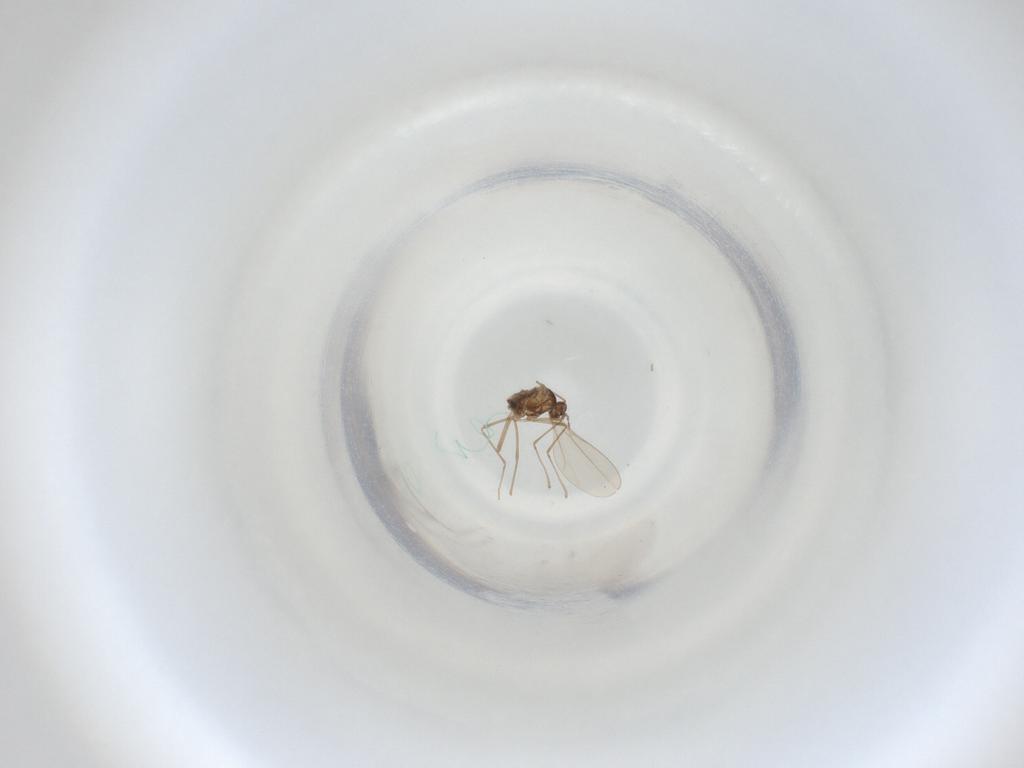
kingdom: Animalia
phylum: Arthropoda
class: Insecta
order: Diptera
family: Cecidomyiidae
